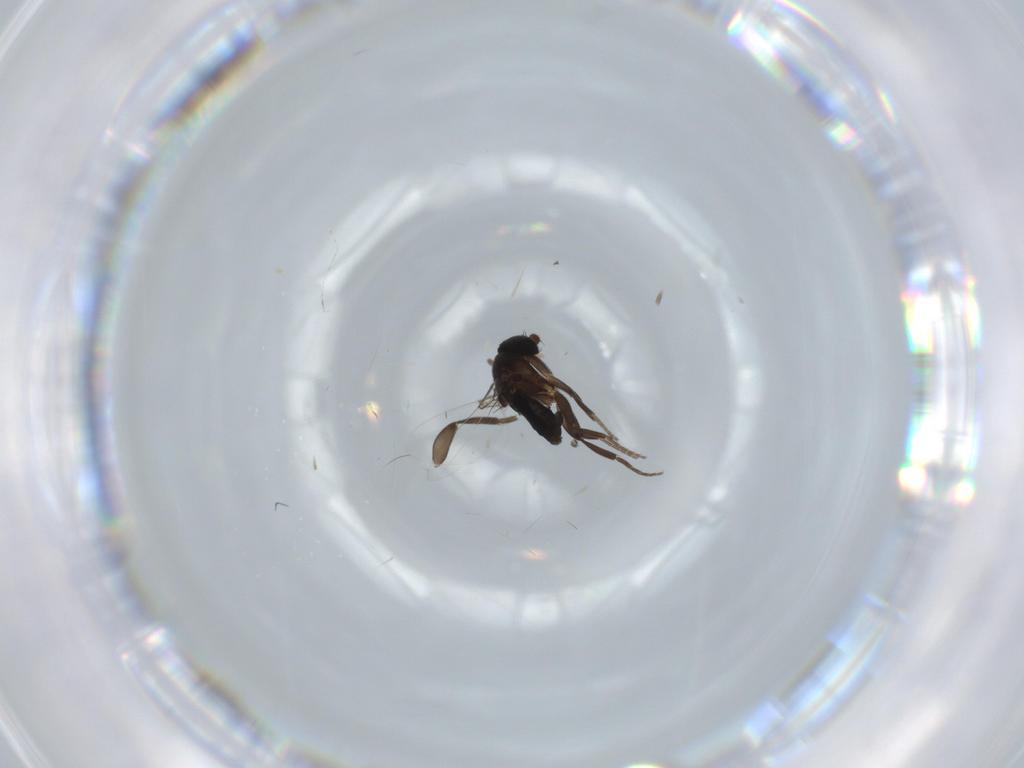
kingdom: Animalia
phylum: Arthropoda
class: Insecta
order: Diptera
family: Phoridae
